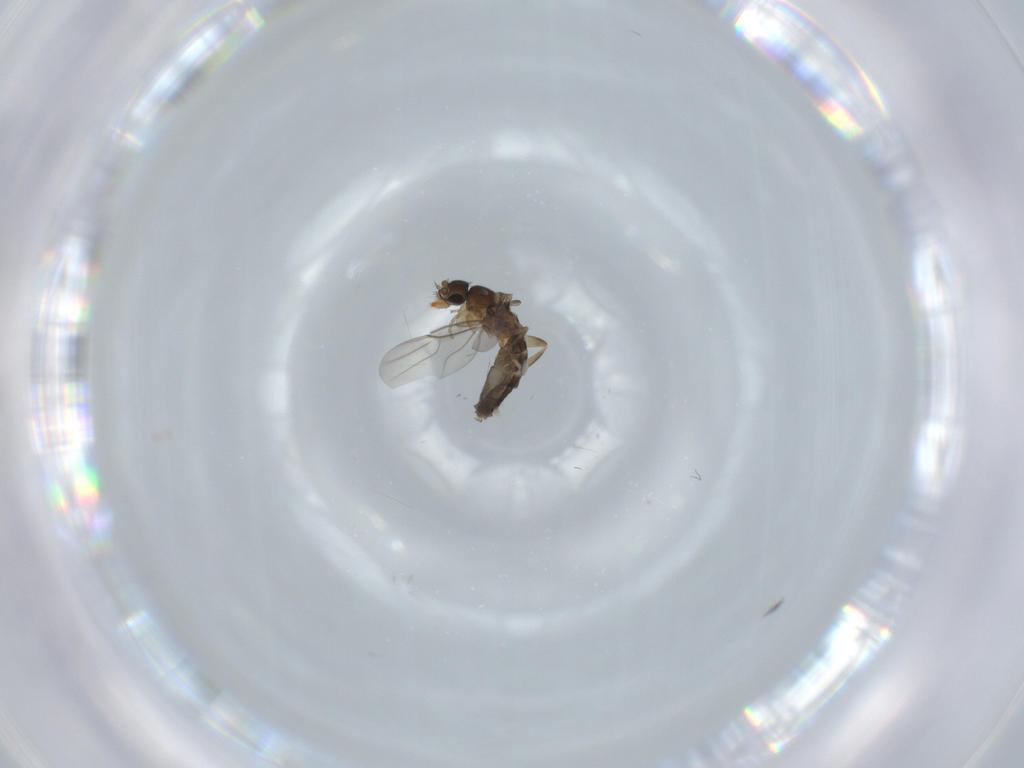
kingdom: Animalia
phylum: Arthropoda
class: Insecta
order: Diptera
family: Phoridae
